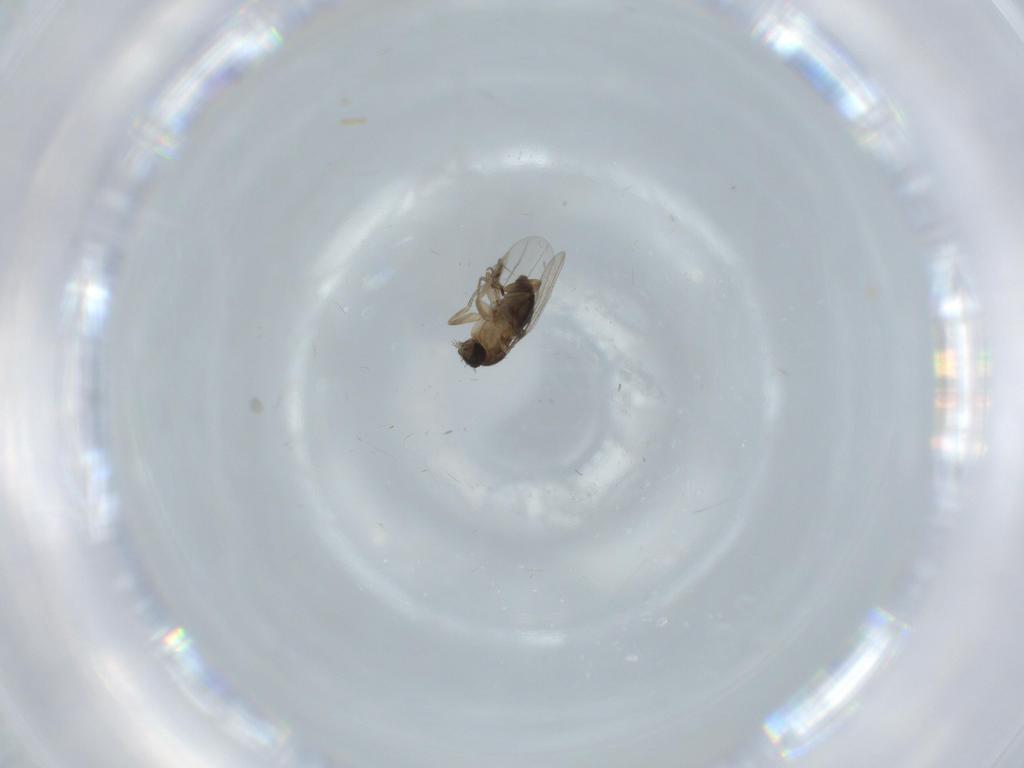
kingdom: Animalia
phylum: Arthropoda
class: Insecta
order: Diptera
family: Phoridae
